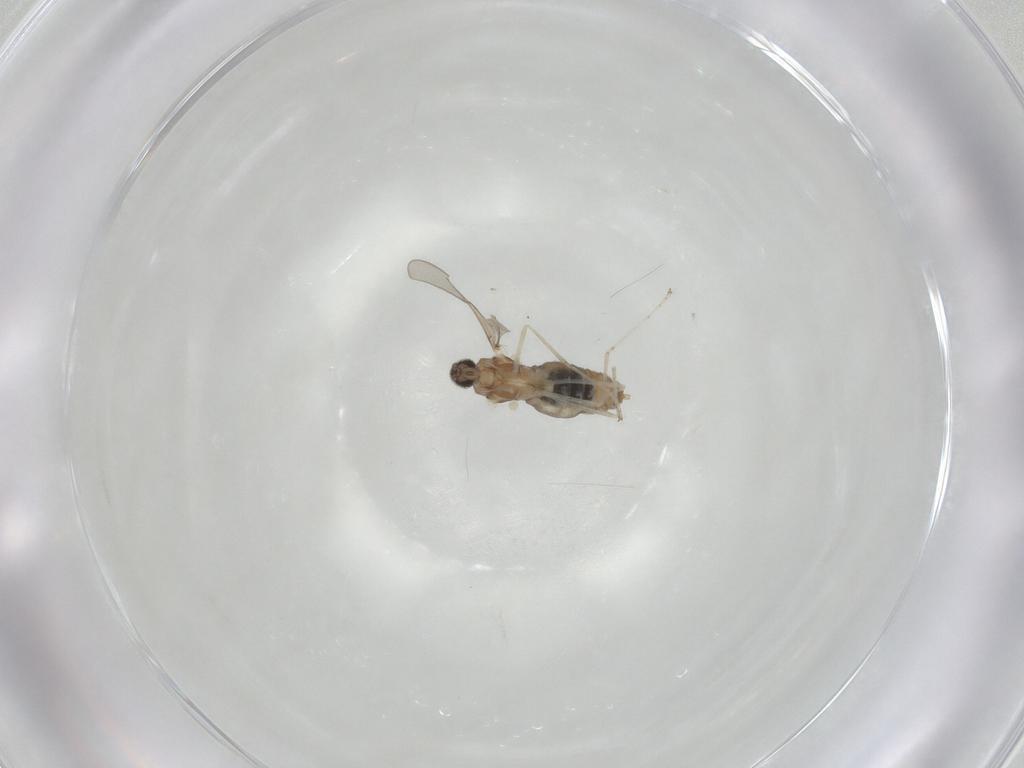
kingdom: Animalia
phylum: Arthropoda
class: Insecta
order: Diptera
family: Cecidomyiidae
